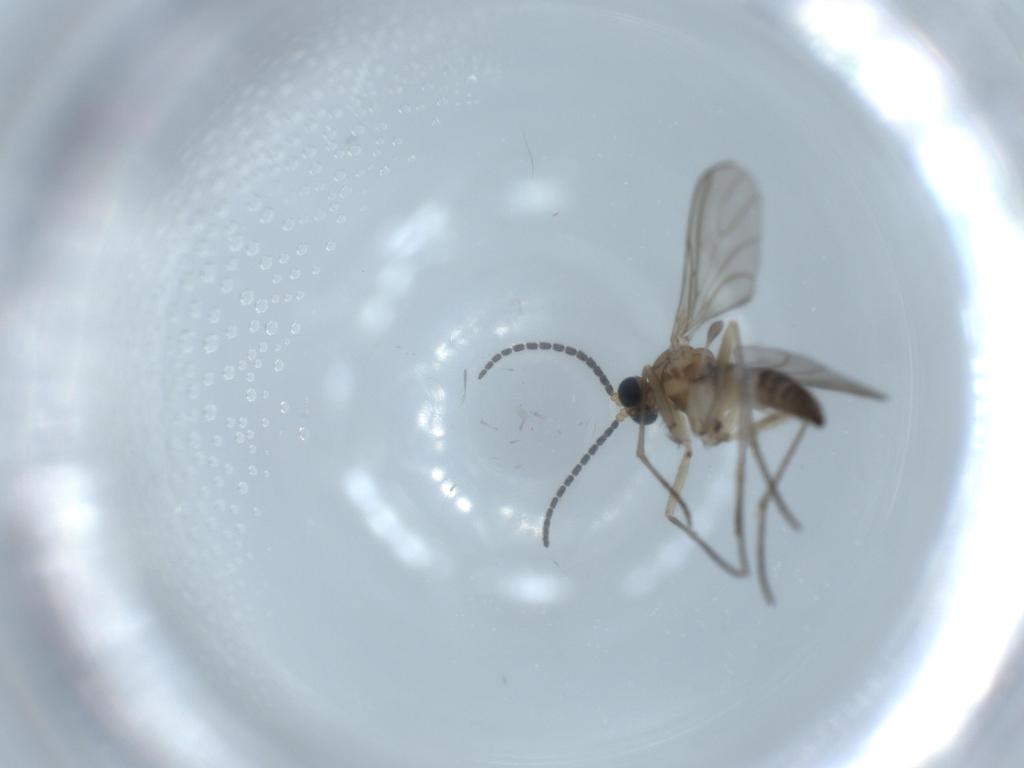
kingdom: Animalia
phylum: Arthropoda
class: Insecta
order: Diptera
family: Sciaridae
